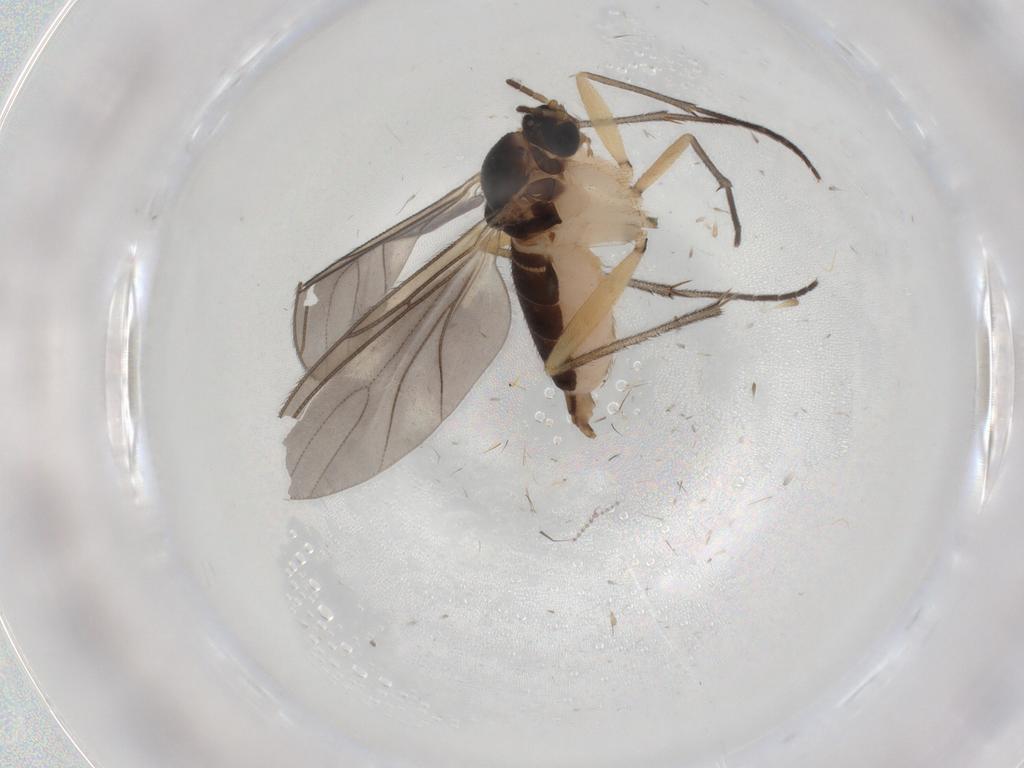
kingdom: Animalia
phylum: Arthropoda
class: Insecta
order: Diptera
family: Sciaridae
